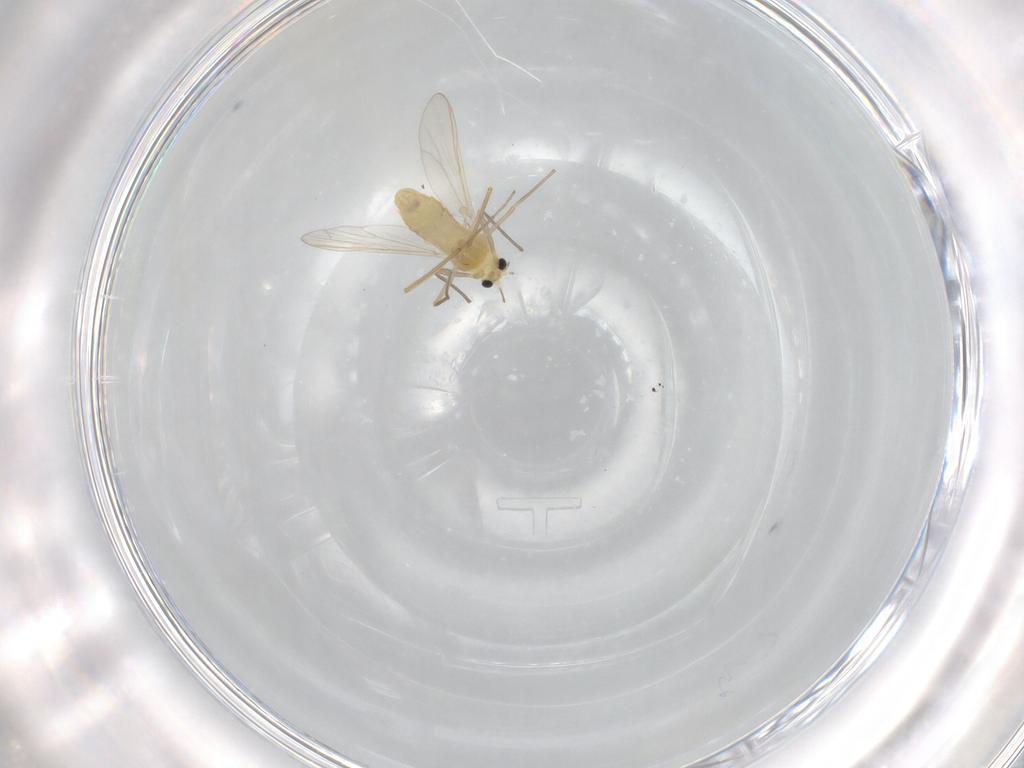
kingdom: Animalia
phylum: Arthropoda
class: Insecta
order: Diptera
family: Chironomidae
